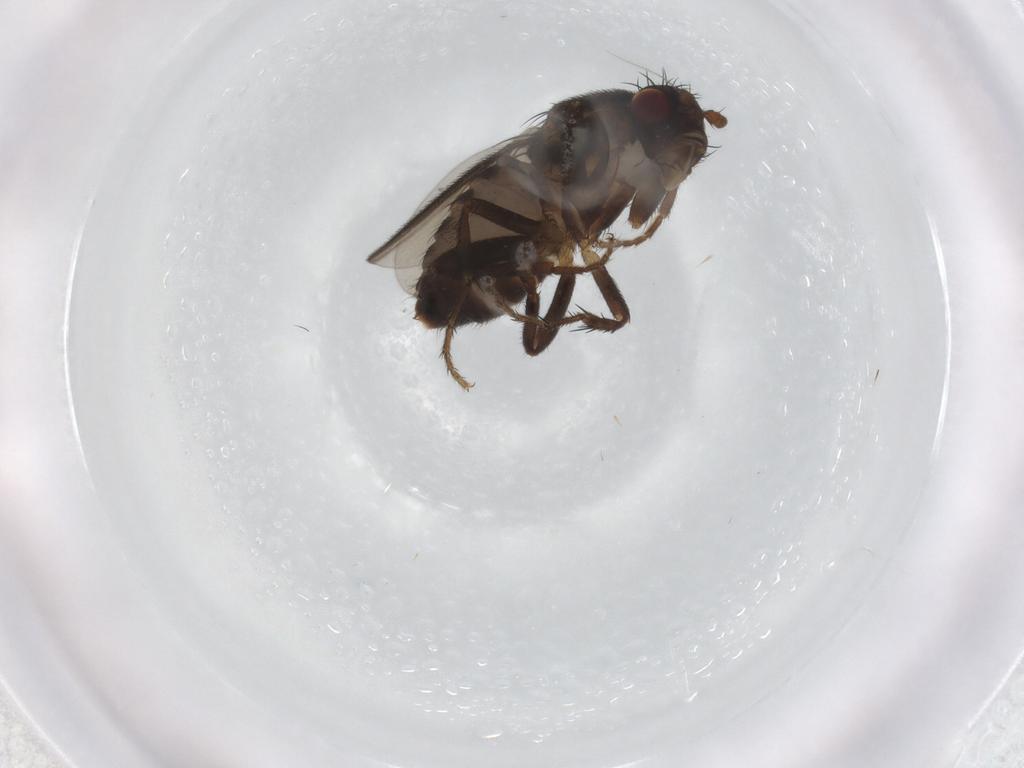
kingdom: Animalia
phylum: Arthropoda
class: Insecta
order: Diptera
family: Sphaeroceridae
